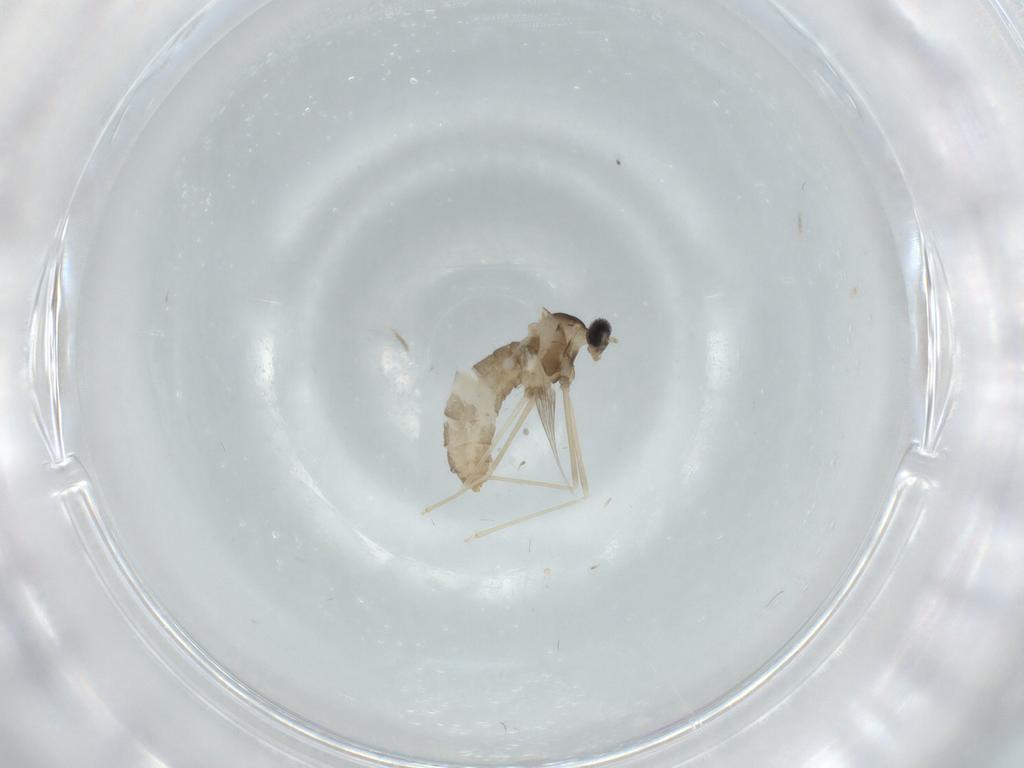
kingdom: Animalia
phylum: Arthropoda
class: Insecta
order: Diptera
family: Cecidomyiidae
